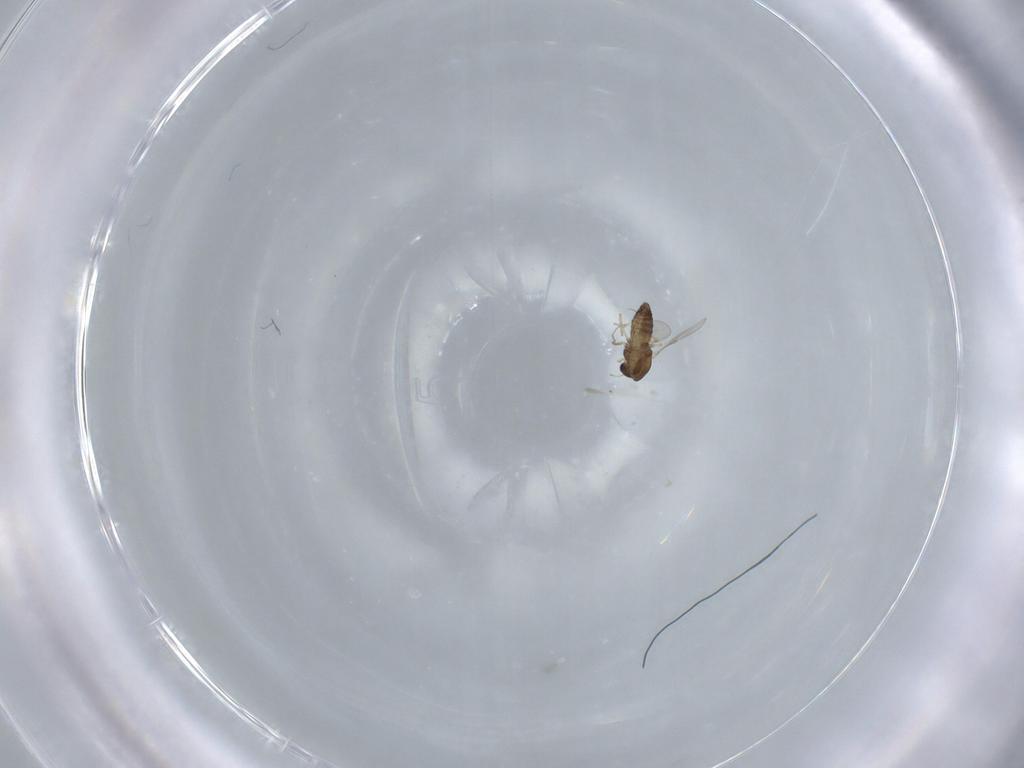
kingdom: Animalia
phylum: Arthropoda
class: Insecta
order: Diptera
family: Chironomidae
